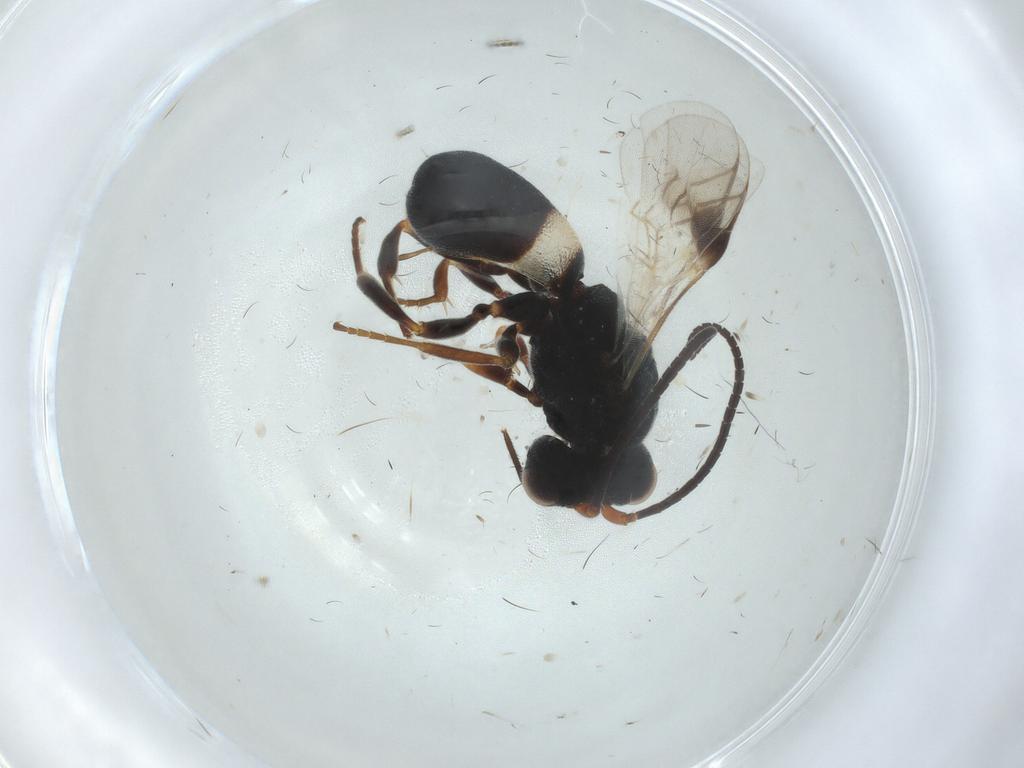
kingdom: Animalia
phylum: Arthropoda
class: Insecta
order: Hymenoptera
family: Braconidae
